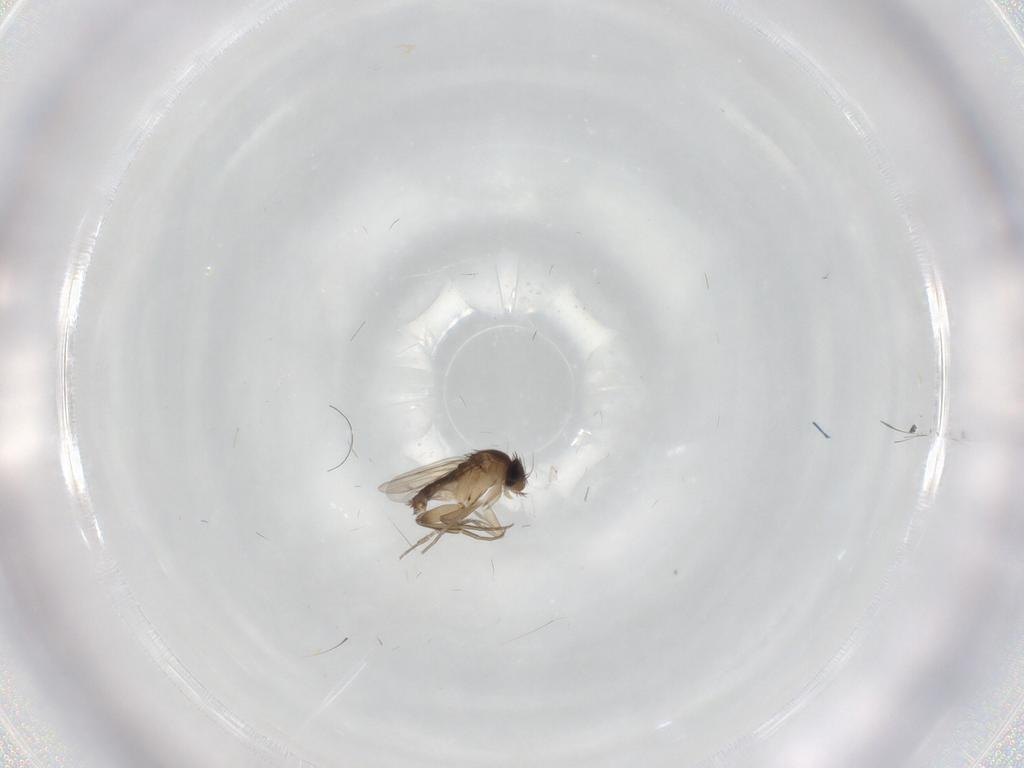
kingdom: Animalia
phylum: Arthropoda
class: Insecta
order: Diptera
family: Phoridae
